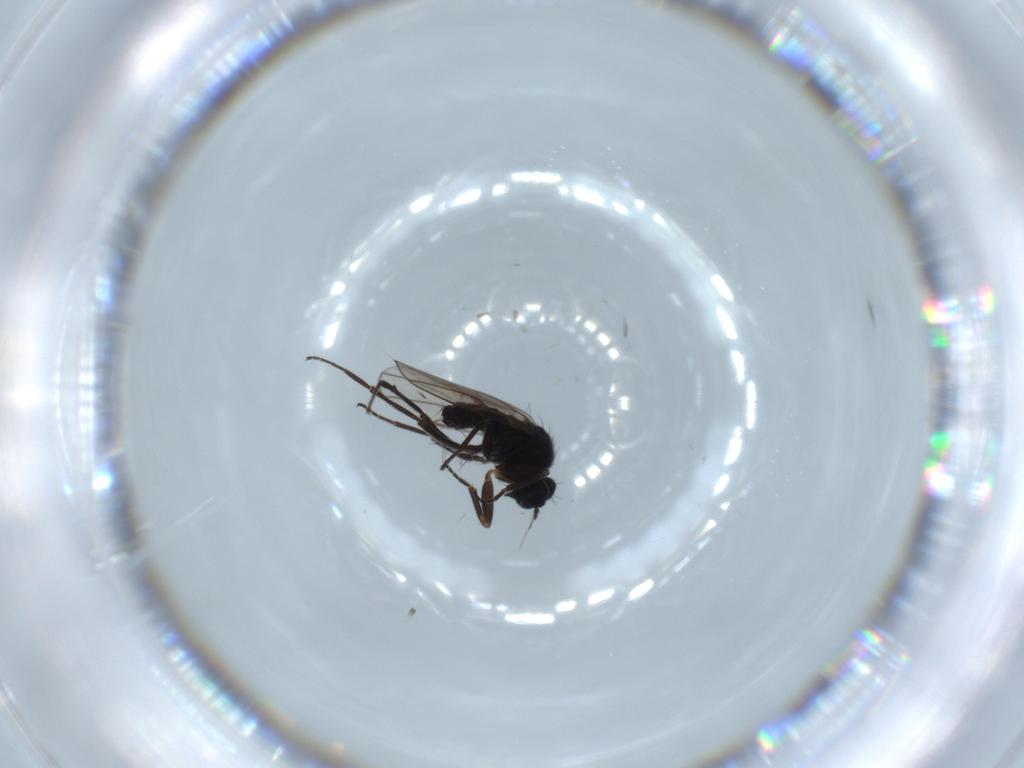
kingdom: Animalia
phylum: Arthropoda
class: Insecta
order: Diptera
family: Hybotidae
